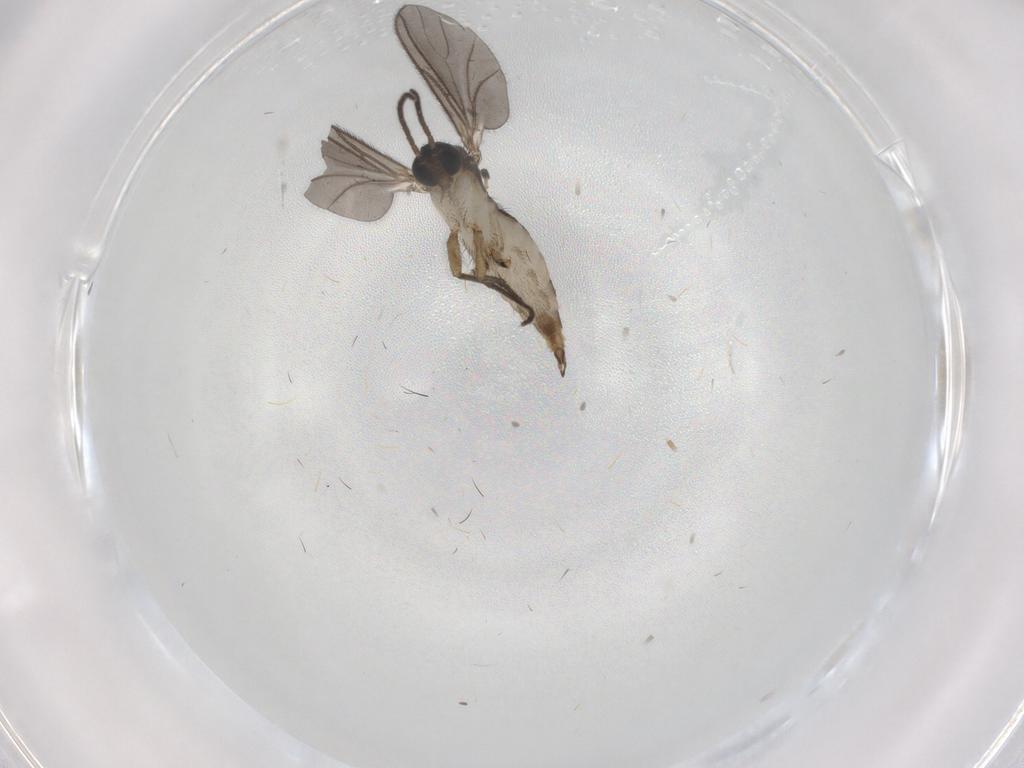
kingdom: Animalia
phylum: Arthropoda
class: Insecta
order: Diptera
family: Sciaridae
